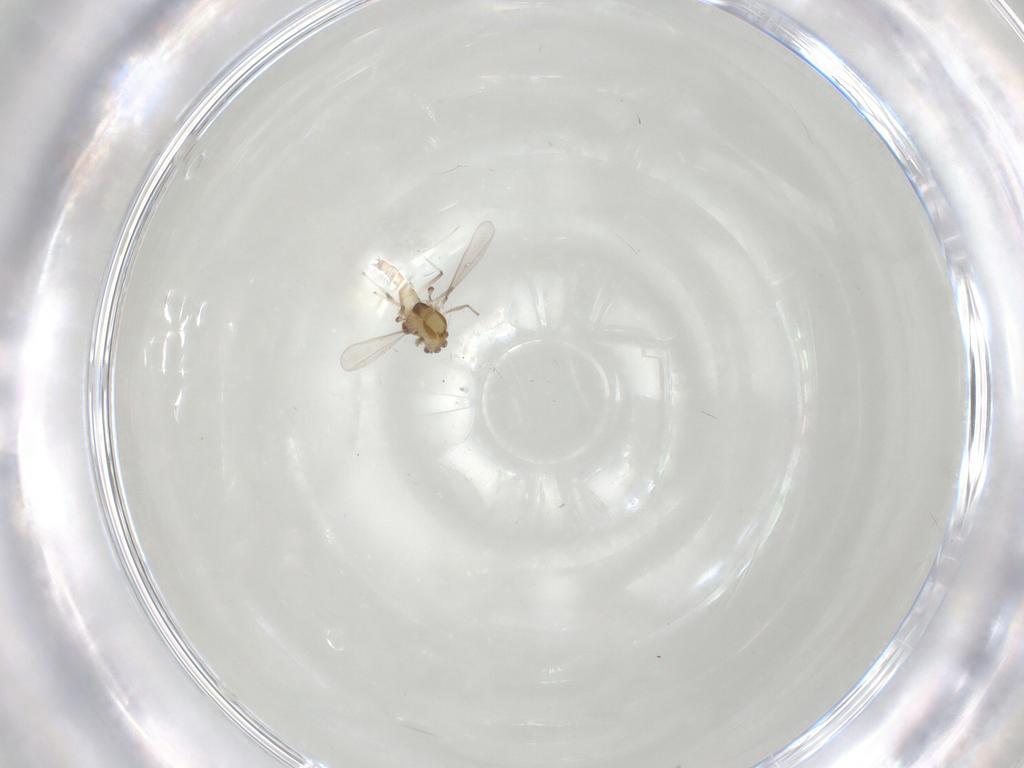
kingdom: Animalia
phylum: Arthropoda
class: Insecta
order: Diptera
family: Chironomidae
